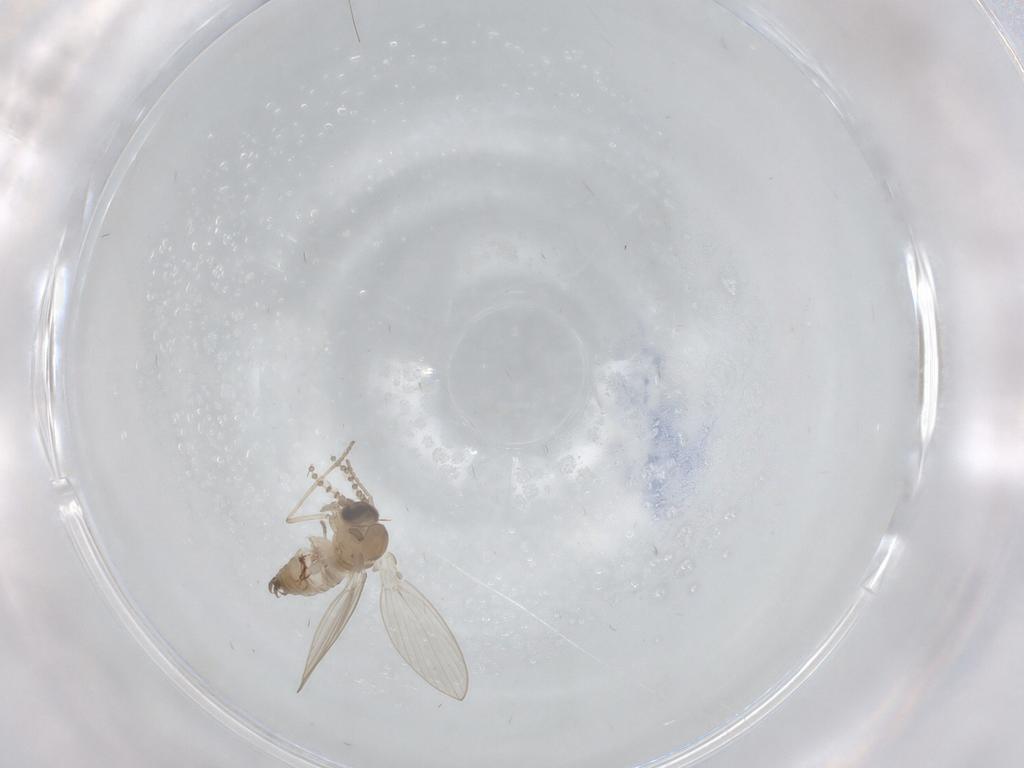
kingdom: Animalia
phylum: Arthropoda
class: Insecta
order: Diptera
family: Psychodidae
